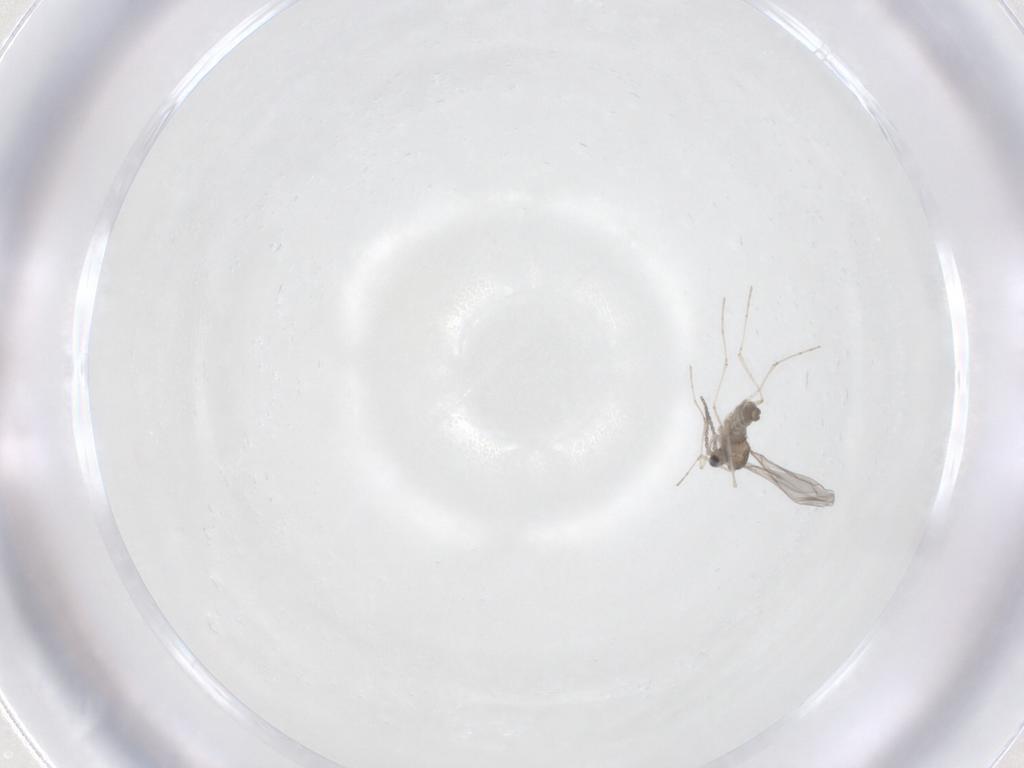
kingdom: Animalia
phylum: Arthropoda
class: Insecta
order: Diptera
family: Cecidomyiidae
